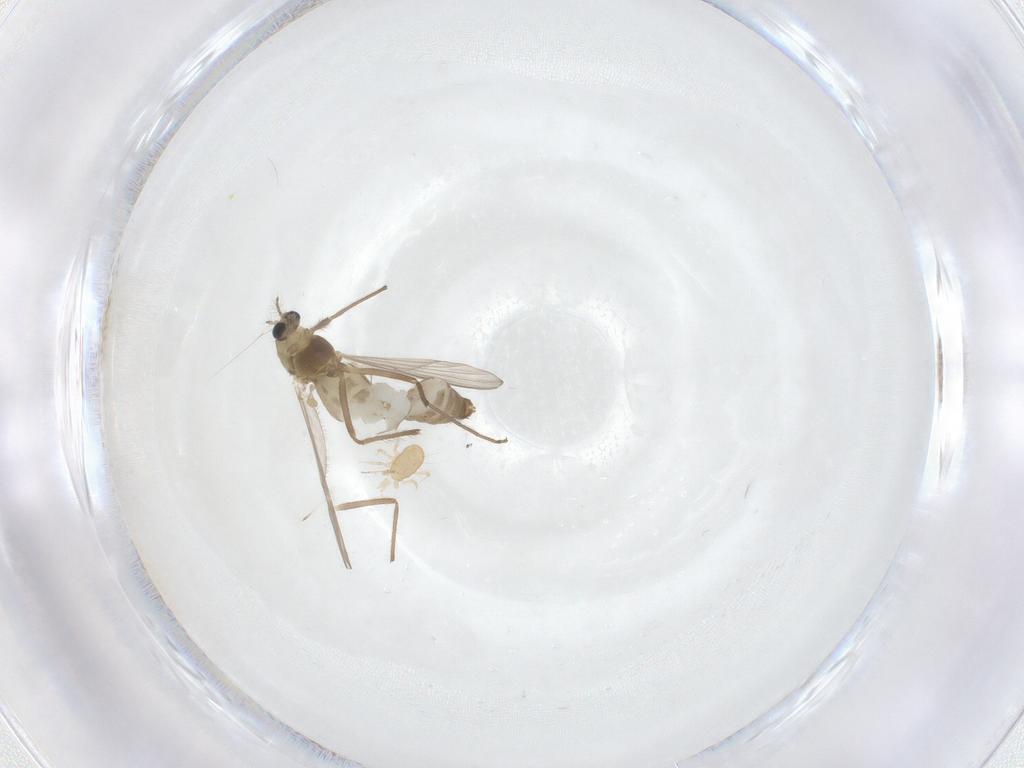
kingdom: Animalia
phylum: Arthropoda
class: Insecta
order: Diptera
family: Chironomidae
